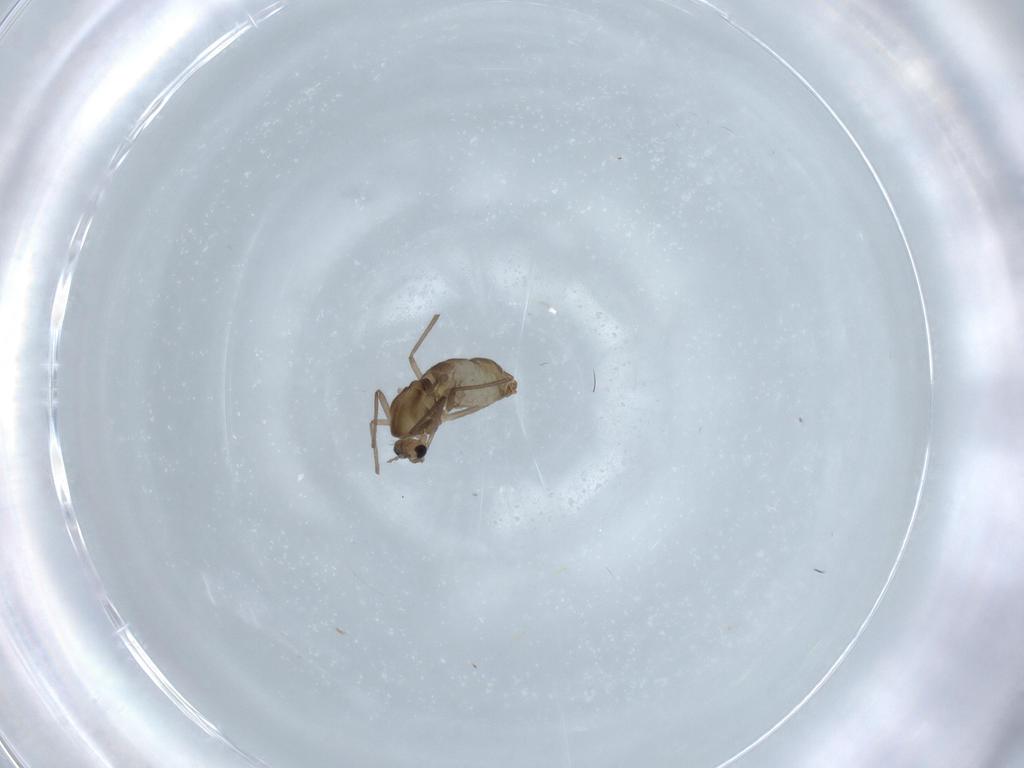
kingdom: Animalia
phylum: Arthropoda
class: Insecta
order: Diptera
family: Chironomidae
